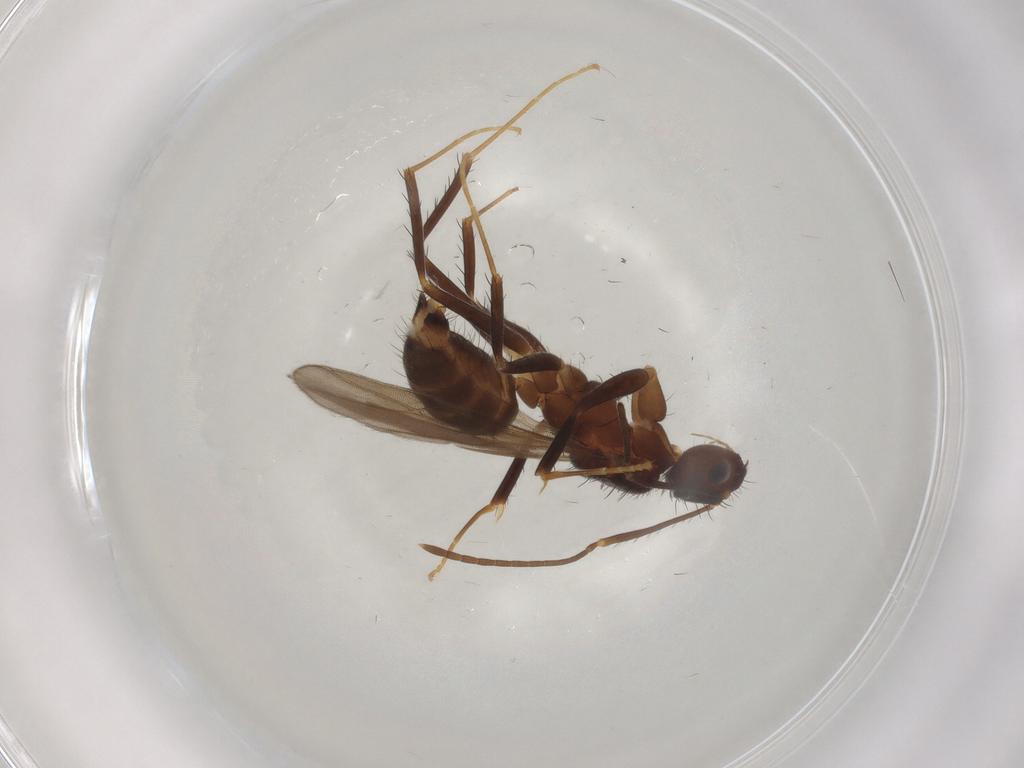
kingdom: Animalia
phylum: Arthropoda
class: Insecta
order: Hymenoptera
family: Formicidae
